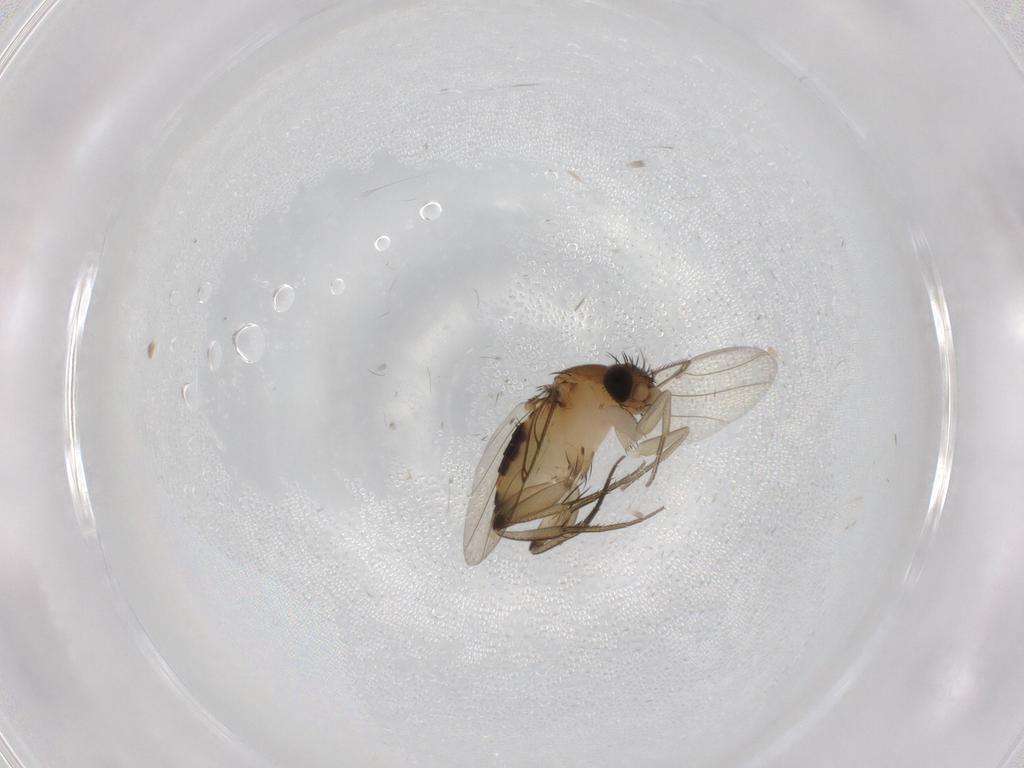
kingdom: Animalia
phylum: Arthropoda
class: Insecta
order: Diptera
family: Phoridae
